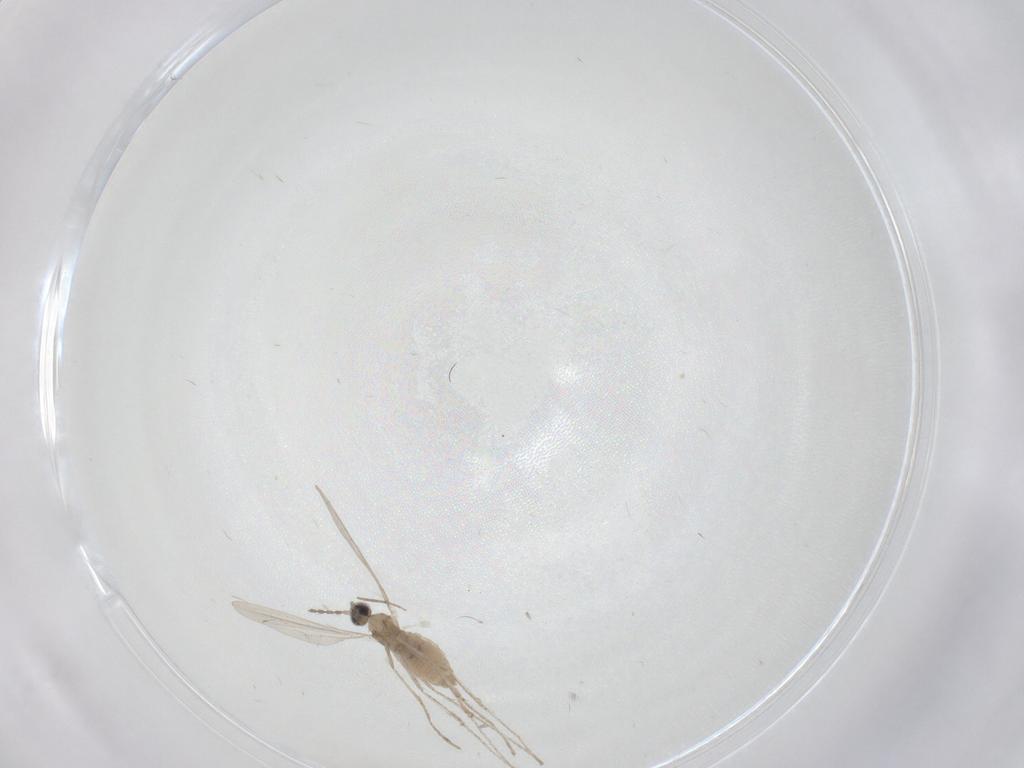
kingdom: Animalia
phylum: Arthropoda
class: Insecta
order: Diptera
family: Cecidomyiidae
